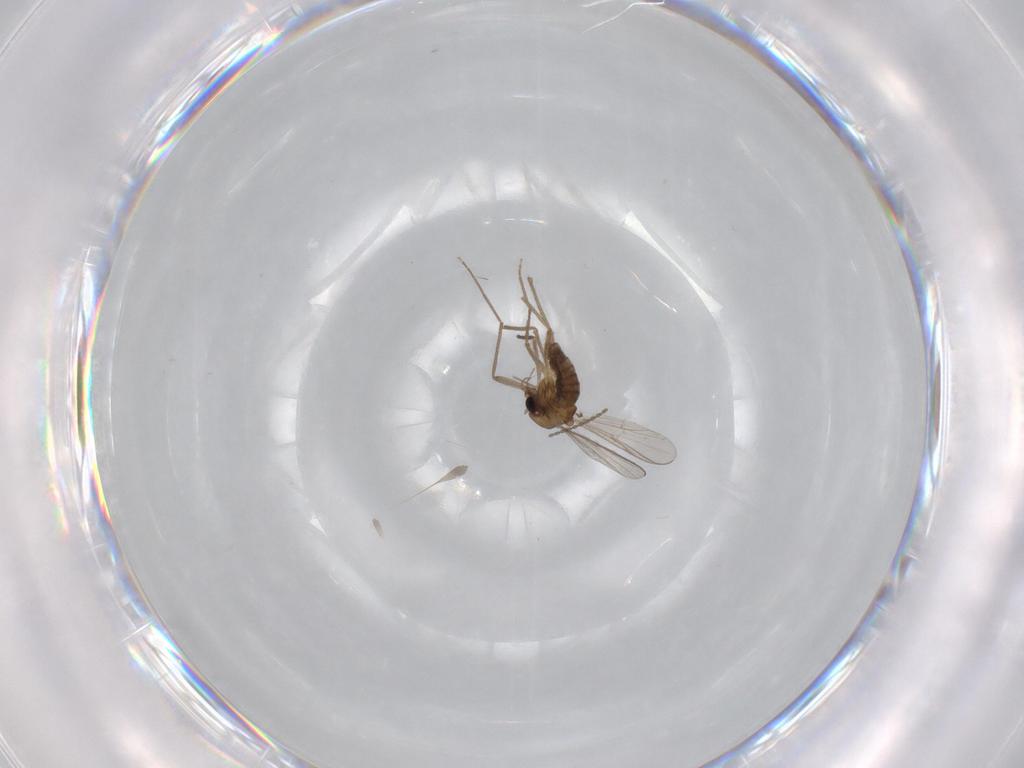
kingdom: Animalia
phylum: Arthropoda
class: Insecta
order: Diptera
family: Chironomidae
